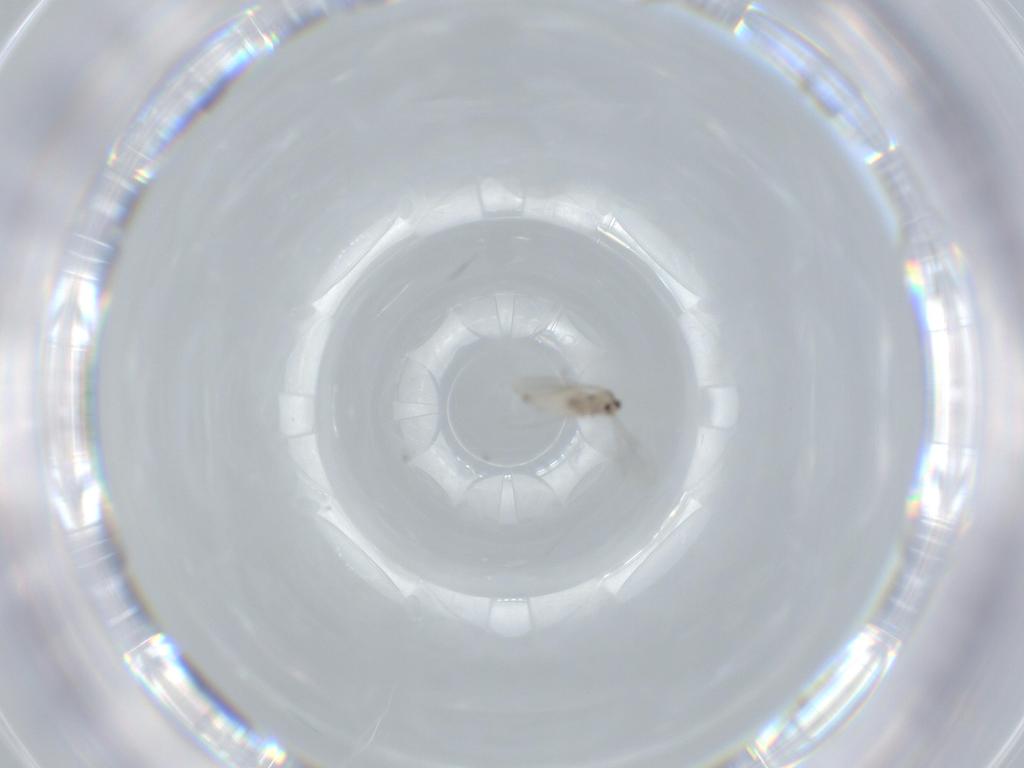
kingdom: Animalia
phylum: Arthropoda
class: Insecta
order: Diptera
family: Cecidomyiidae
